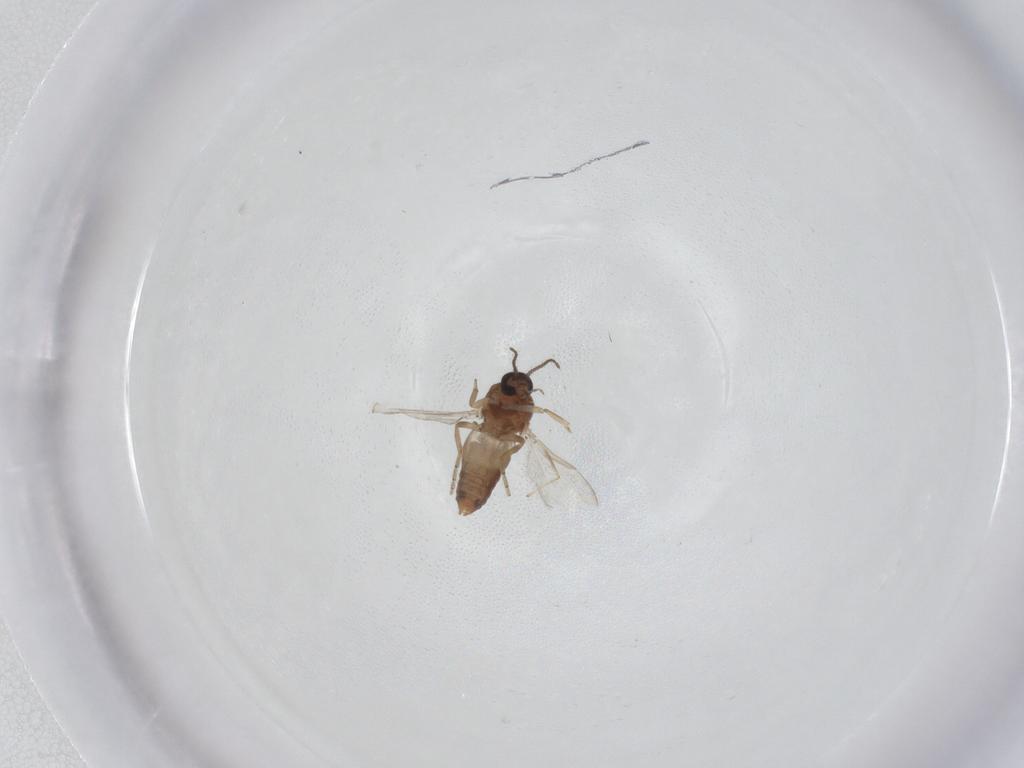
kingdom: Animalia
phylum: Arthropoda
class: Insecta
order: Diptera
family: Ceratopogonidae
